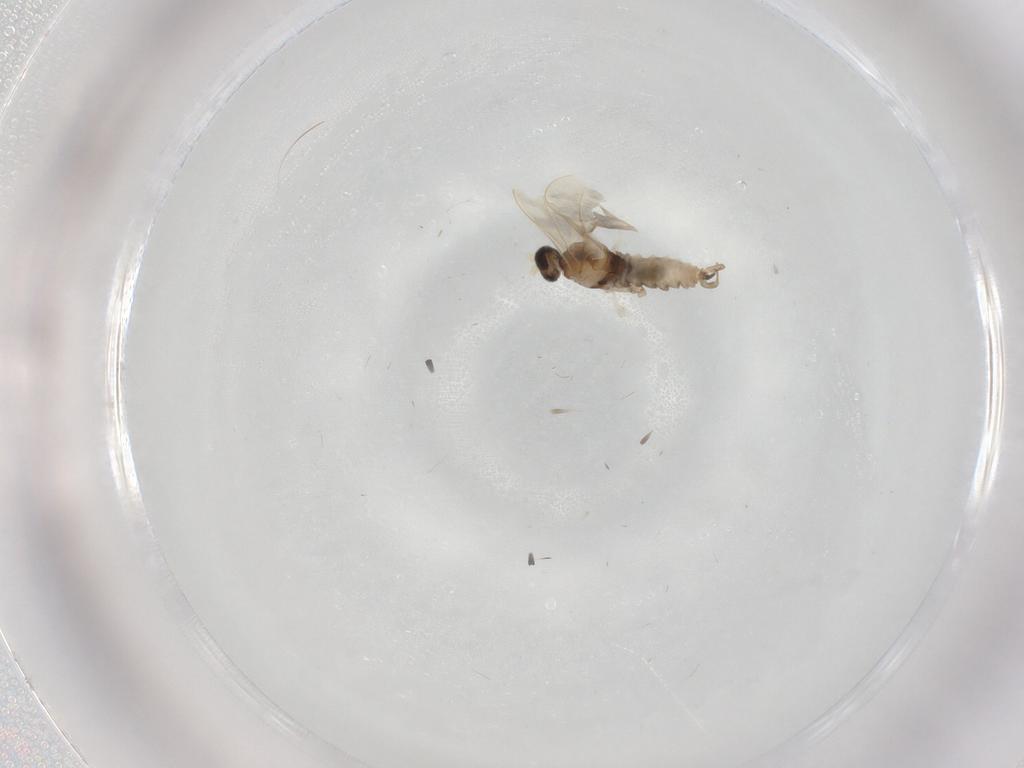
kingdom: Animalia
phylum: Arthropoda
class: Insecta
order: Diptera
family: Cecidomyiidae
